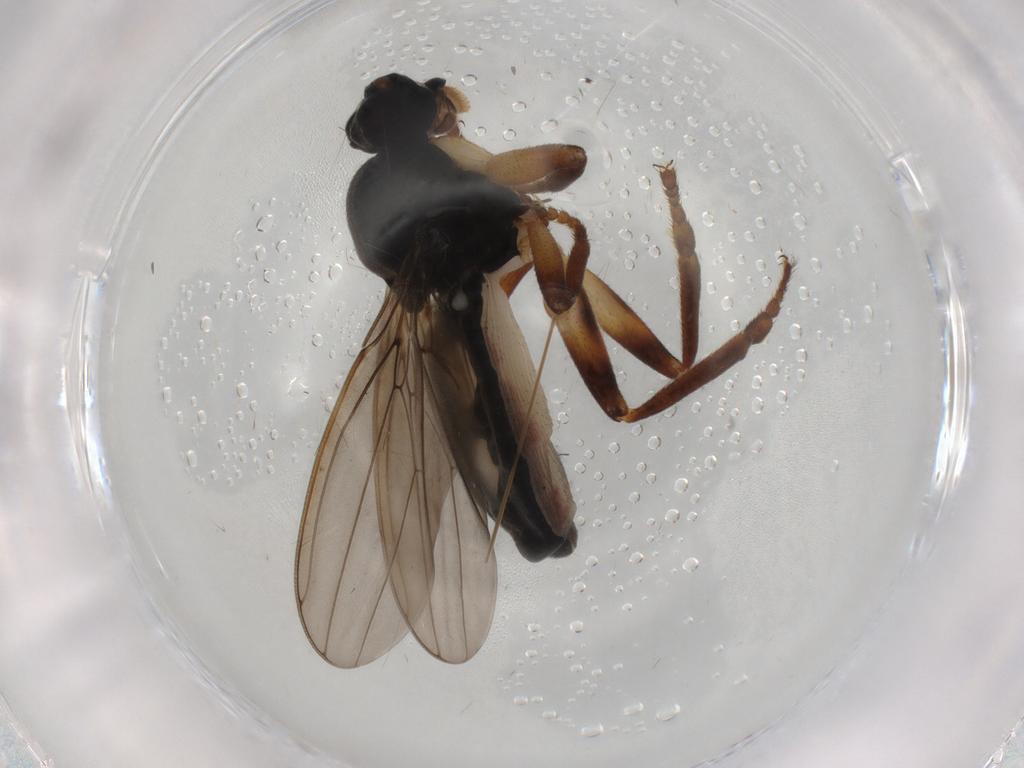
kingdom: Animalia
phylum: Arthropoda
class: Insecta
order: Diptera
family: Sphaeroceridae
